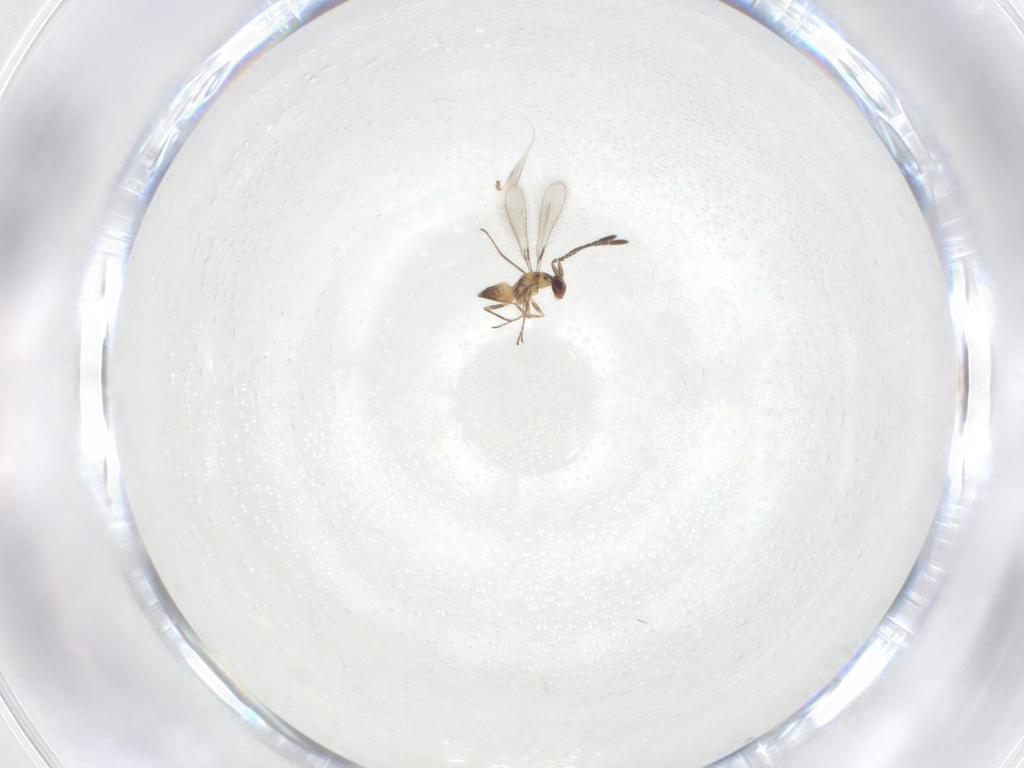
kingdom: Animalia
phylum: Arthropoda
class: Insecta
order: Hymenoptera
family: Mymaridae
